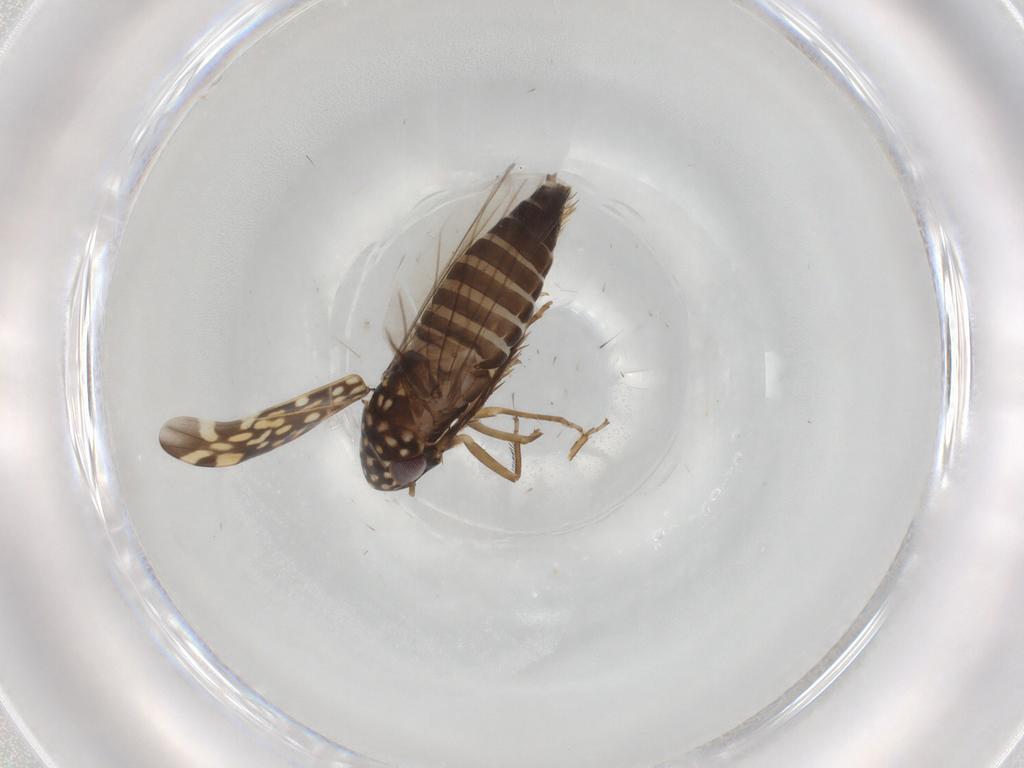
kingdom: Animalia
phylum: Arthropoda
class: Insecta
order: Hemiptera
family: Cicadellidae
